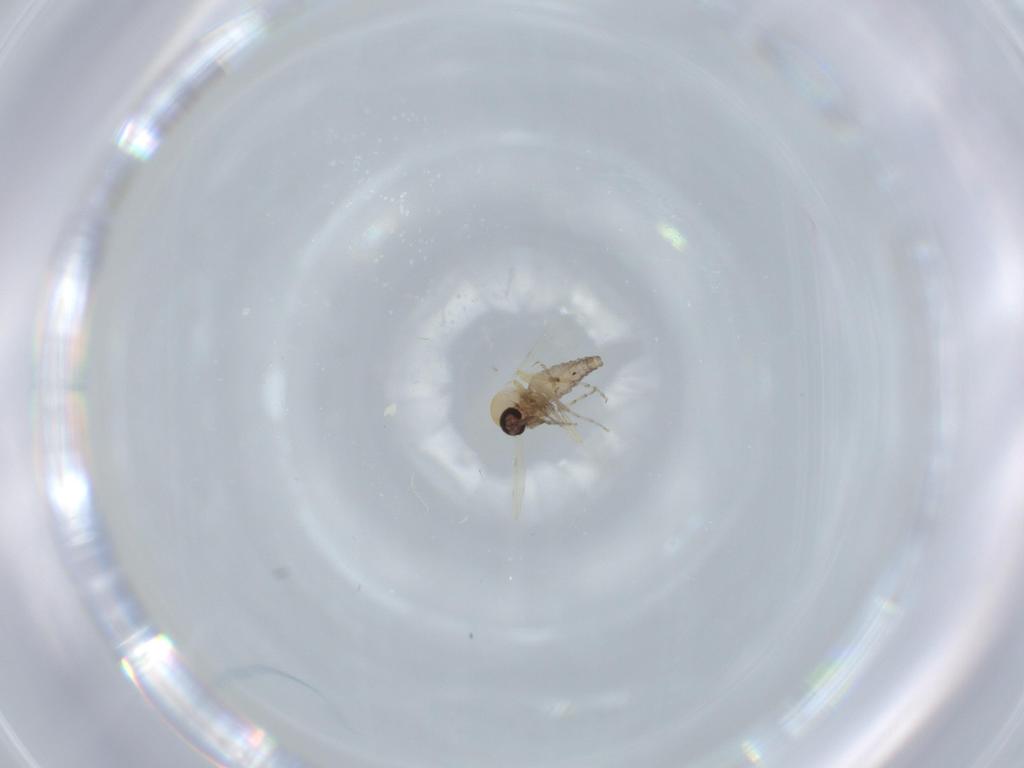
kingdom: Animalia
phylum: Arthropoda
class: Insecta
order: Diptera
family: Ceratopogonidae
